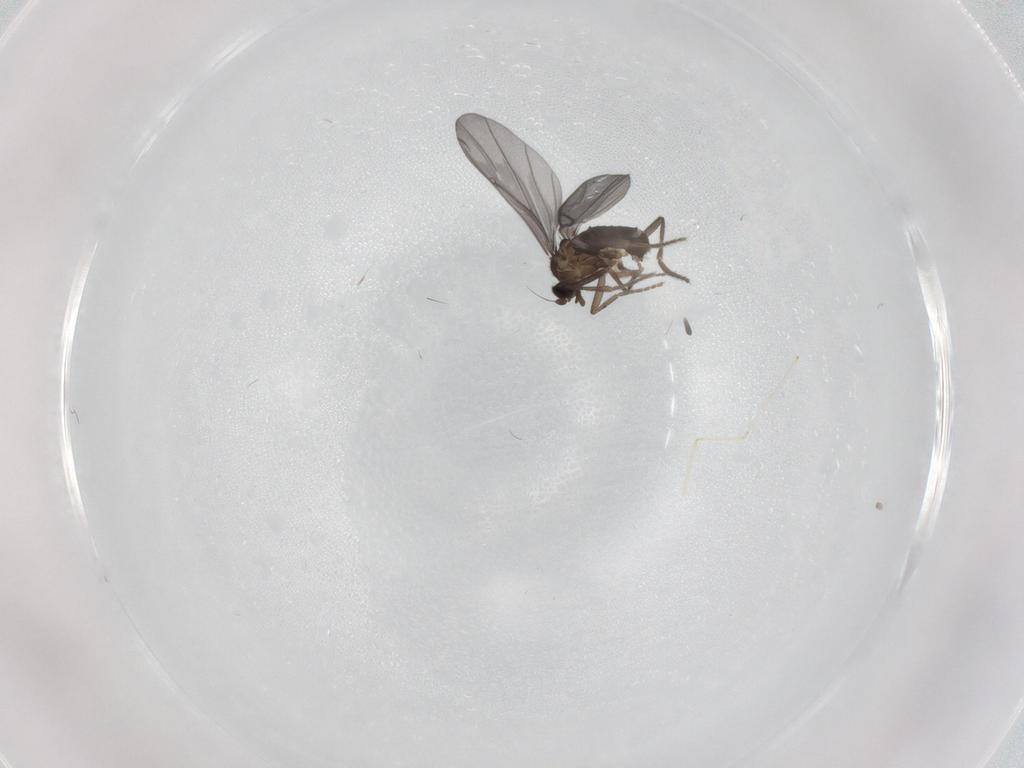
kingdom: Animalia
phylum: Arthropoda
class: Insecta
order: Diptera
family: Phoridae
